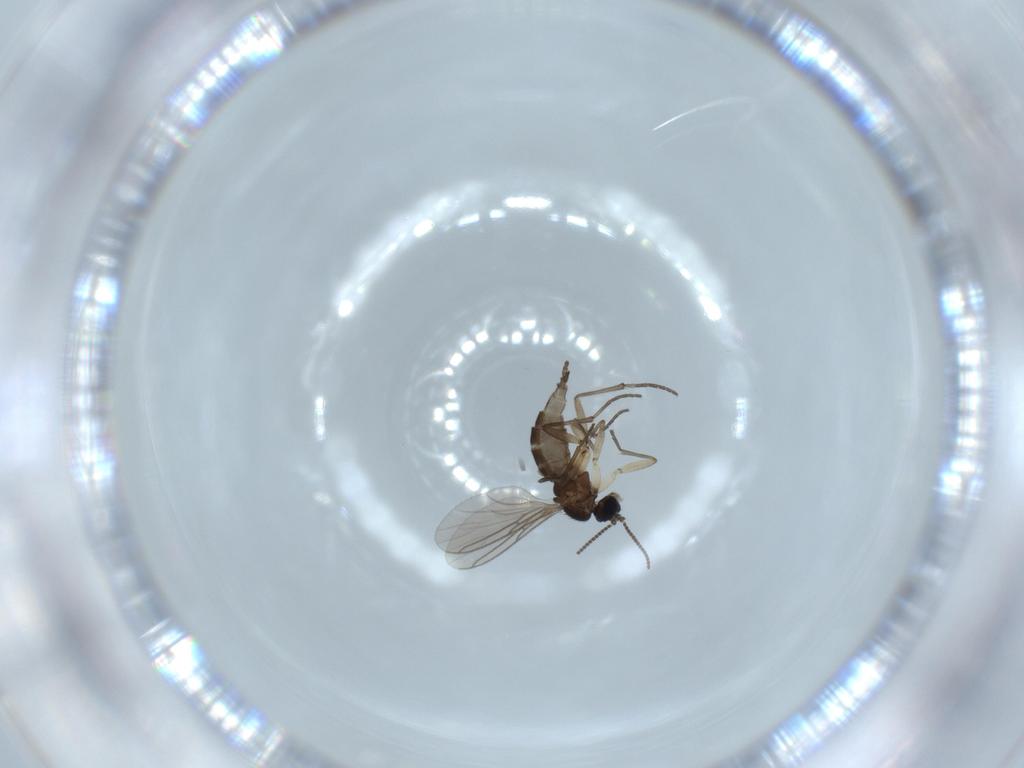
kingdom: Animalia
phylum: Arthropoda
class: Insecta
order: Diptera
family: Sciaridae
